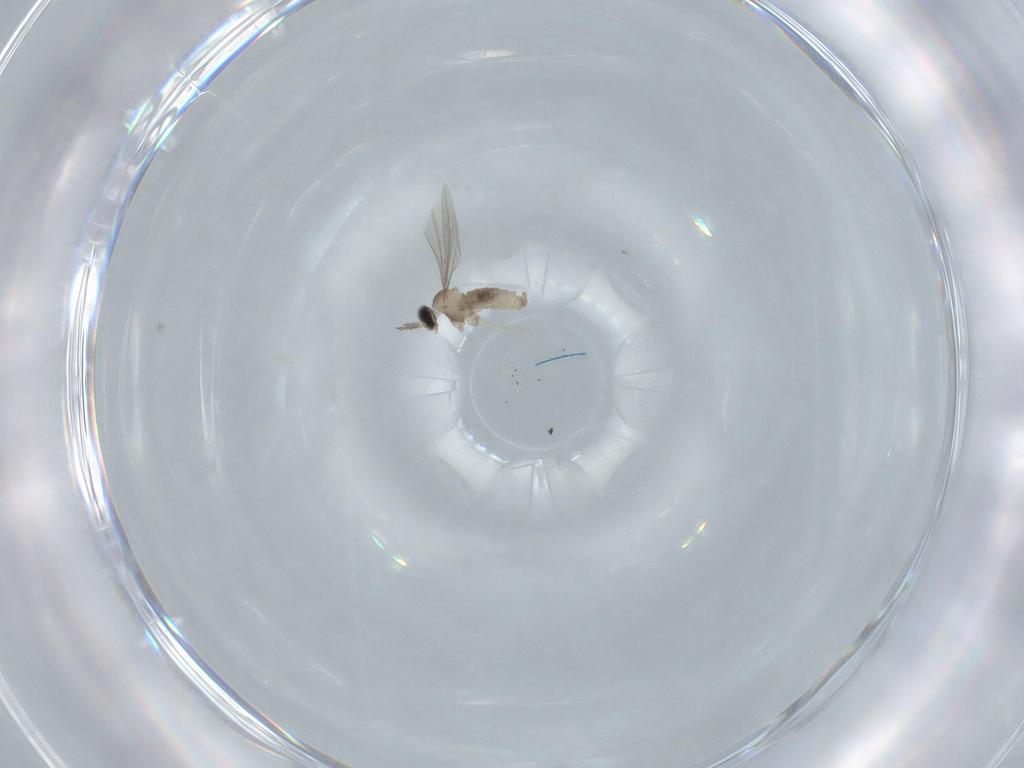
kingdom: Animalia
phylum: Arthropoda
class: Insecta
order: Diptera
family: Cecidomyiidae
